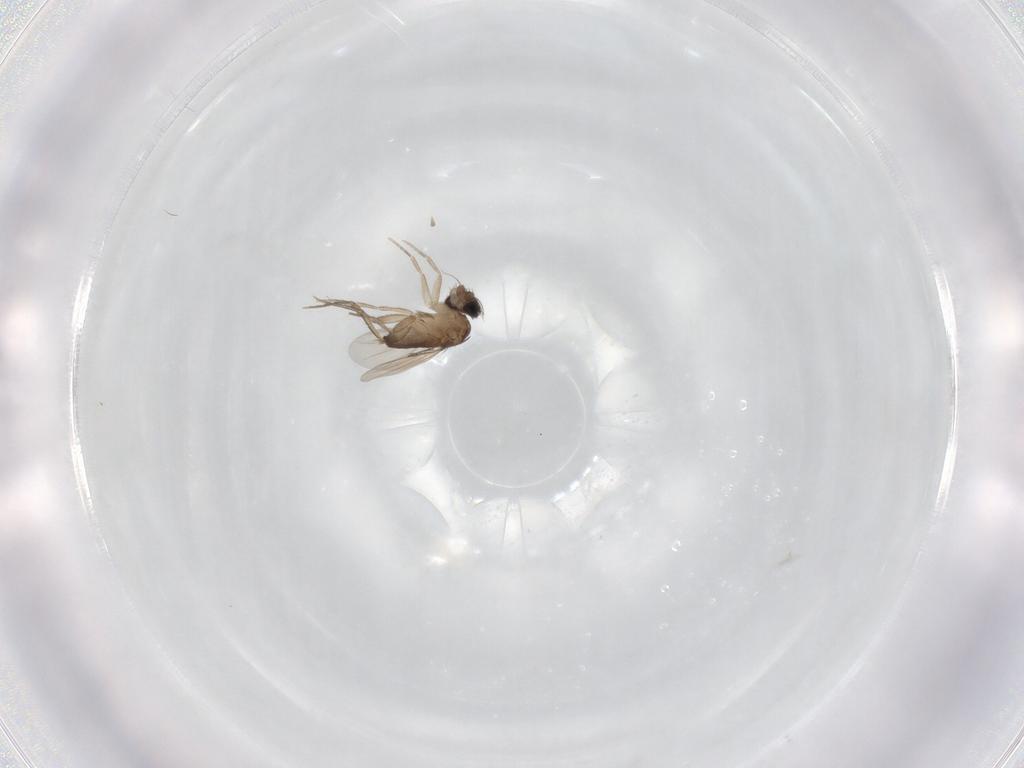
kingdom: Animalia
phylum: Arthropoda
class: Insecta
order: Diptera
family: Phoridae
